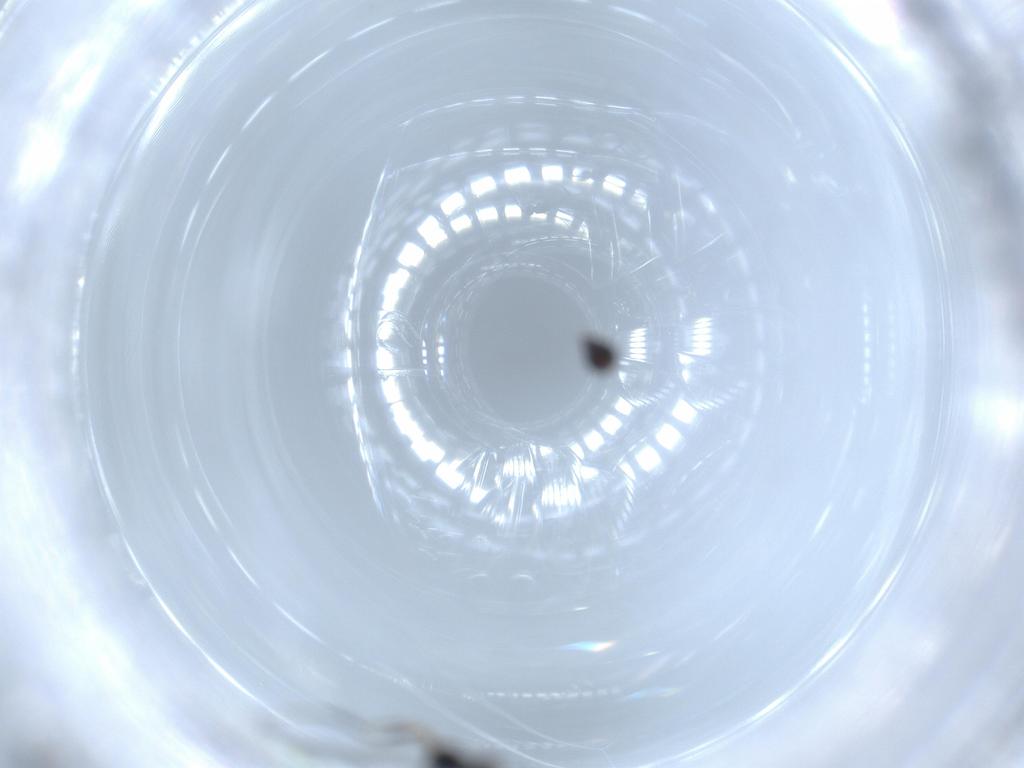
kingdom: Animalia
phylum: Arthropoda
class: Insecta
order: Hymenoptera
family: Mymaridae
